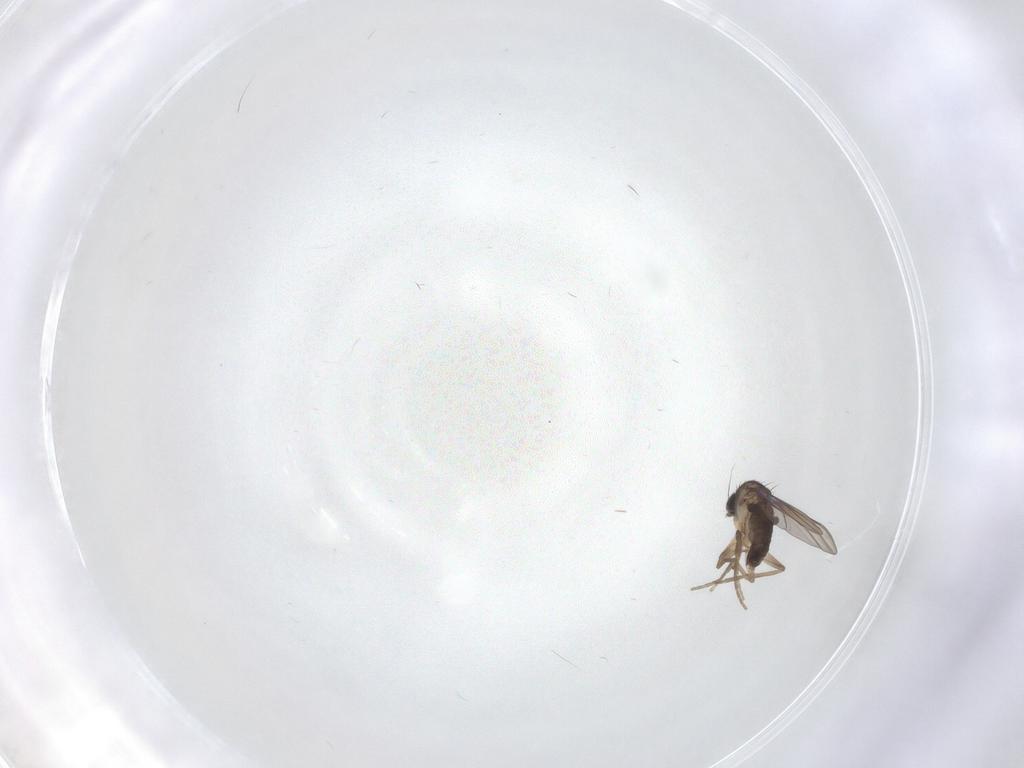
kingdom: Animalia
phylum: Arthropoda
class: Insecta
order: Diptera
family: Phoridae
